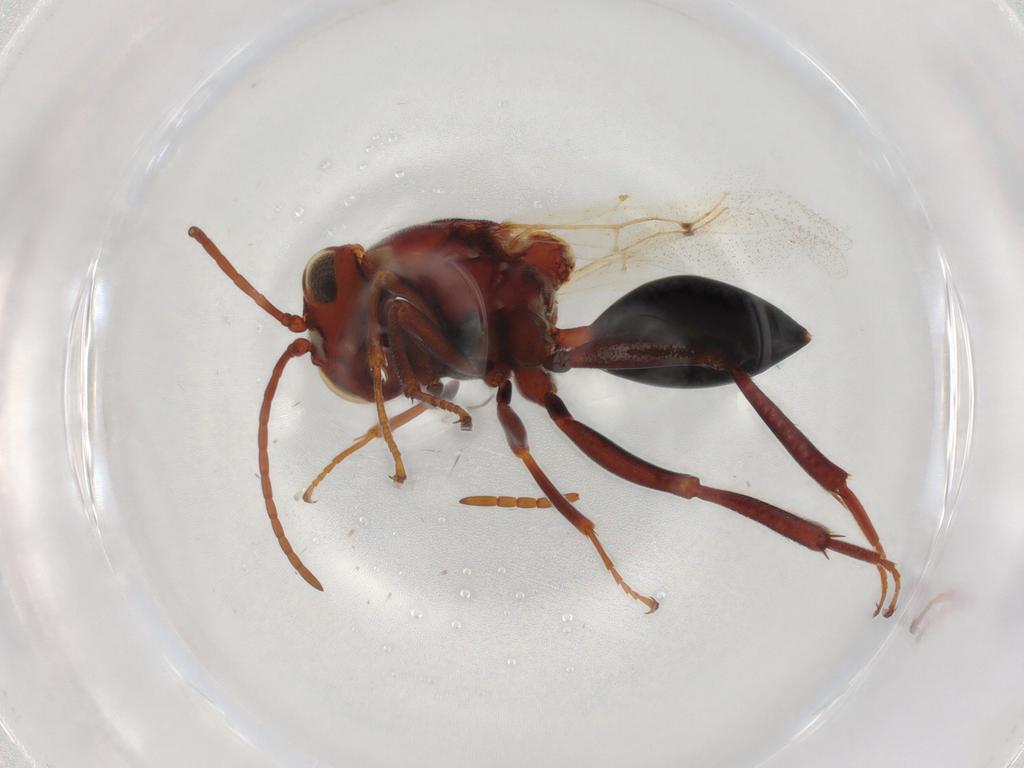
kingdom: Animalia
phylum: Arthropoda
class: Insecta
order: Hymenoptera
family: Figitidae
